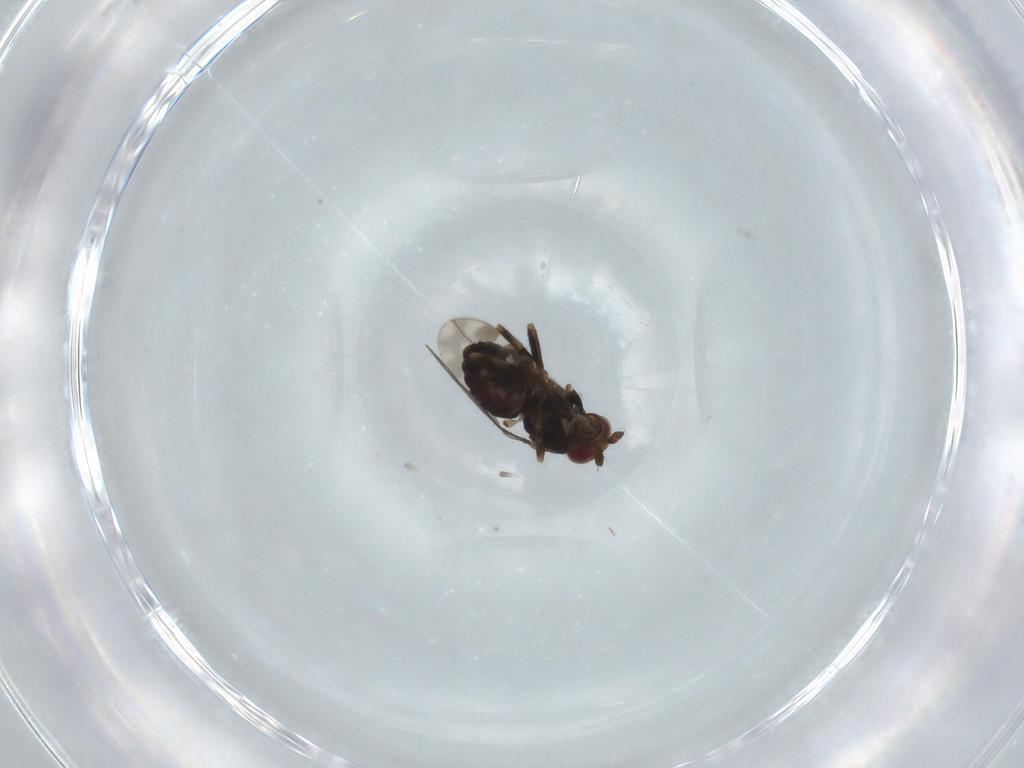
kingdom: Animalia
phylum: Arthropoda
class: Insecta
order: Diptera
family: Sphaeroceridae
